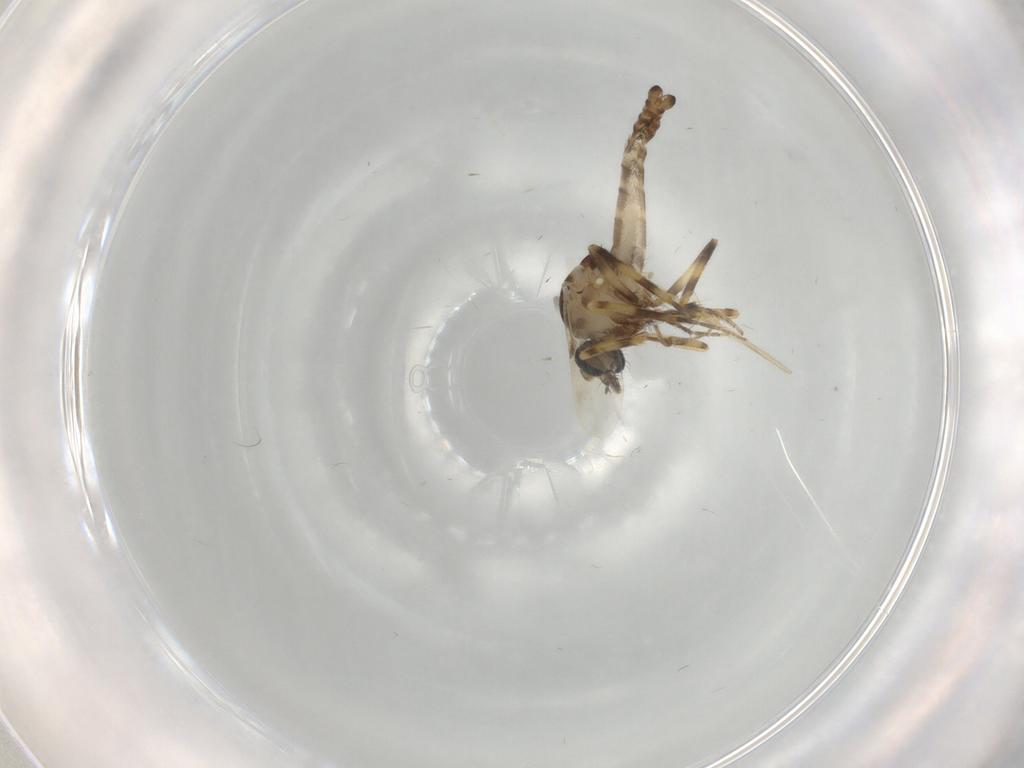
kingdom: Animalia
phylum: Arthropoda
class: Insecta
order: Diptera
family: Ceratopogonidae
